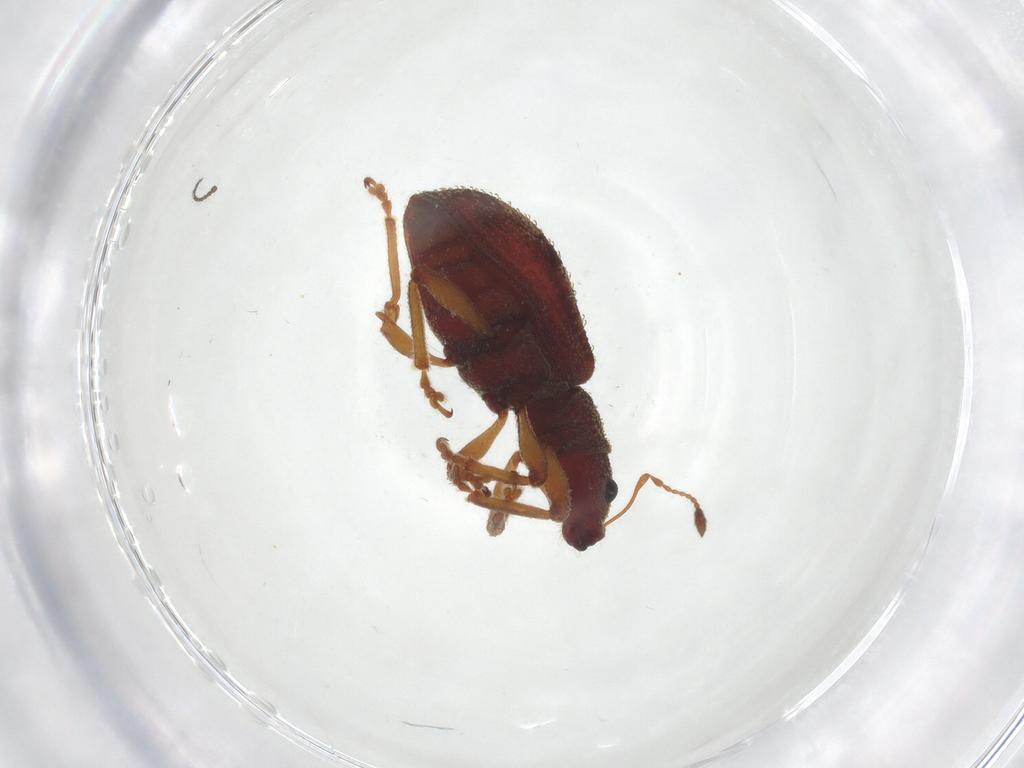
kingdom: Animalia
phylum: Arthropoda
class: Insecta
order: Coleoptera
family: Curculionidae
